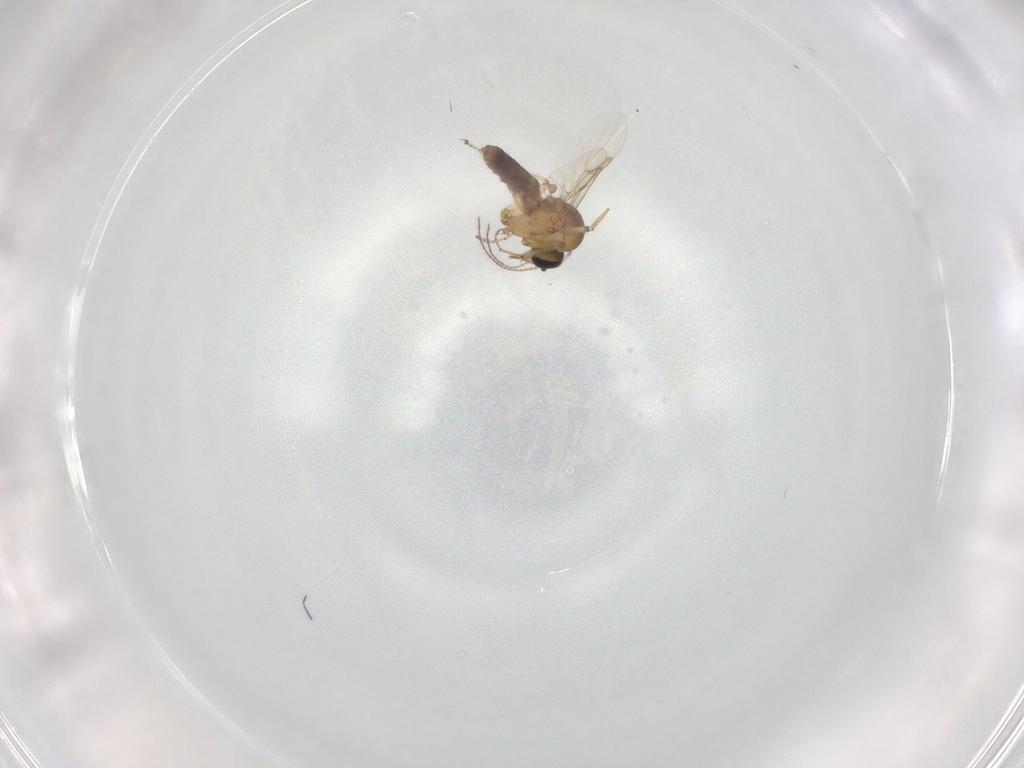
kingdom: Animalia
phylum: Arthropoda
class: Insecta
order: Diptera
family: Ceratopogonidae
